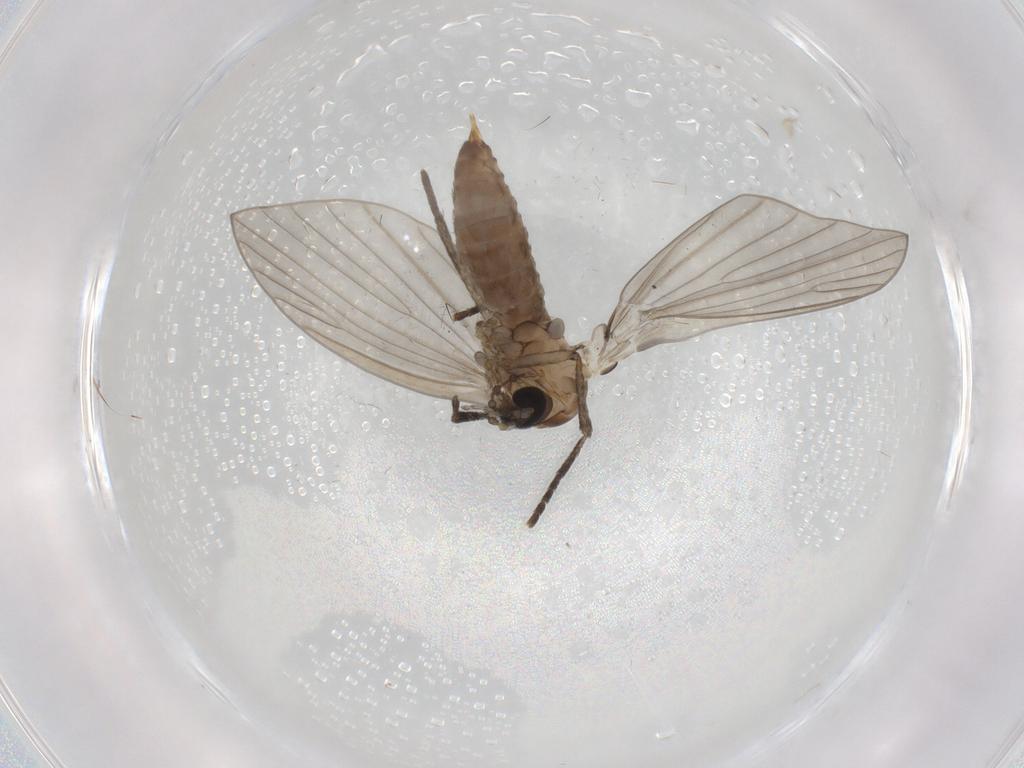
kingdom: Animalia
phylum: Arthropoda
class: Insecta
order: Diptera
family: Psychodidae
